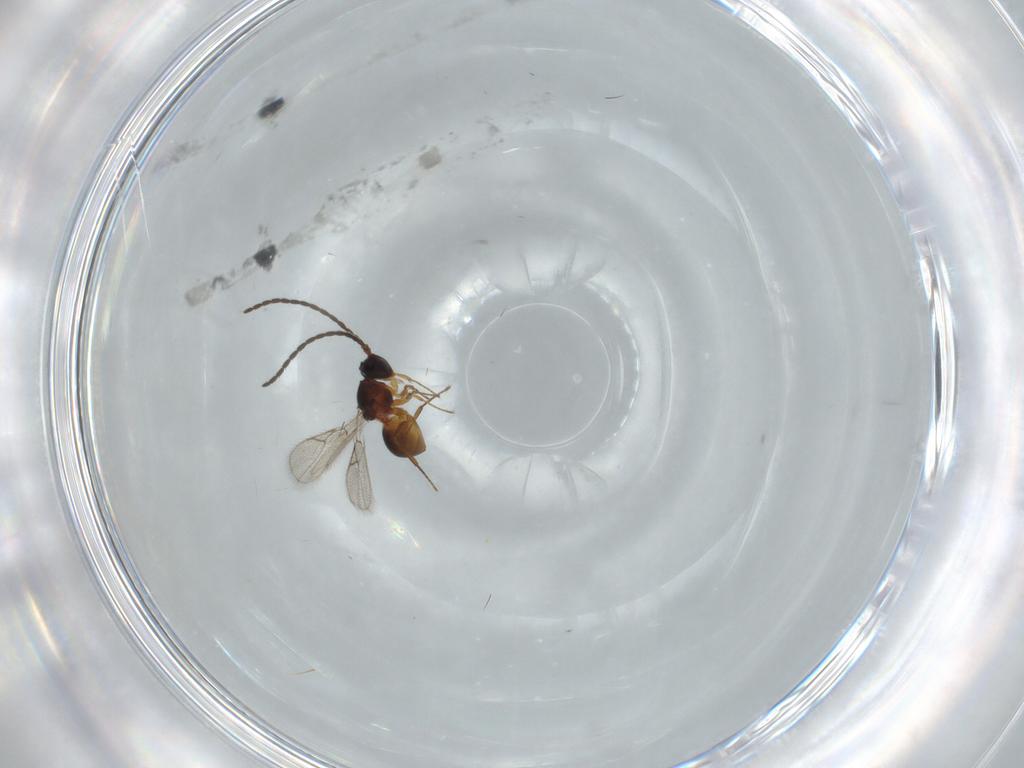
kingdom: Animalia
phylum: Arthropoda
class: Insecta
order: Hymenoptera
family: Figitidae
